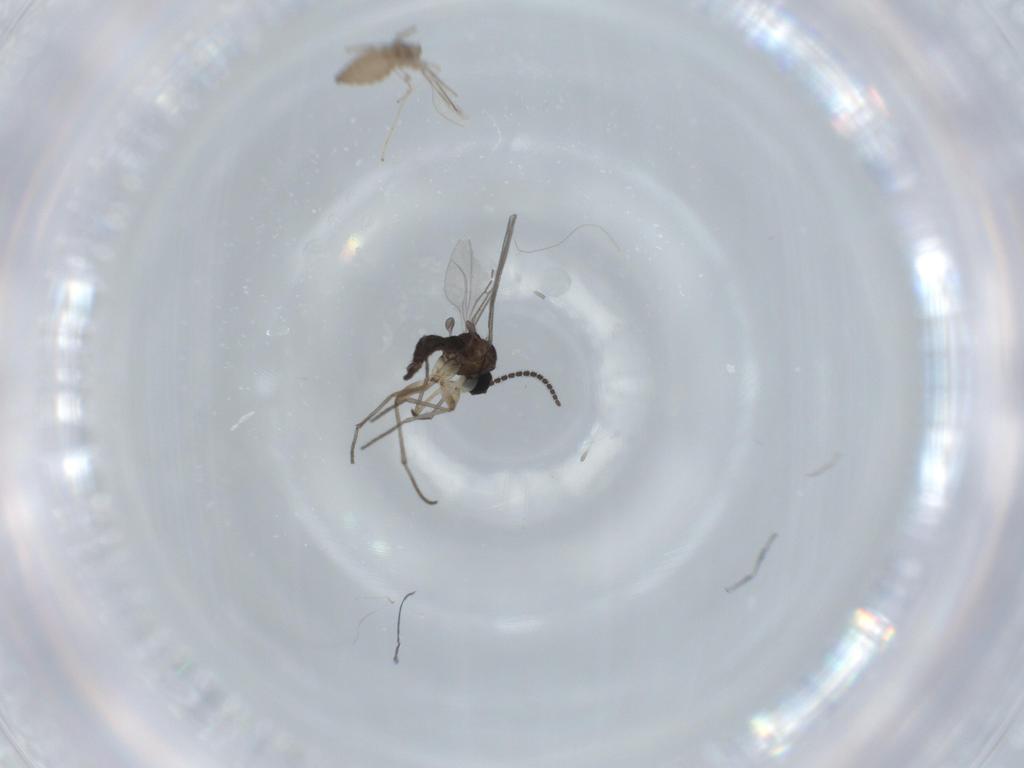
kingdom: Animalia
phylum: Arthropoda
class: Insecta
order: Diptera
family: Sciaridae
